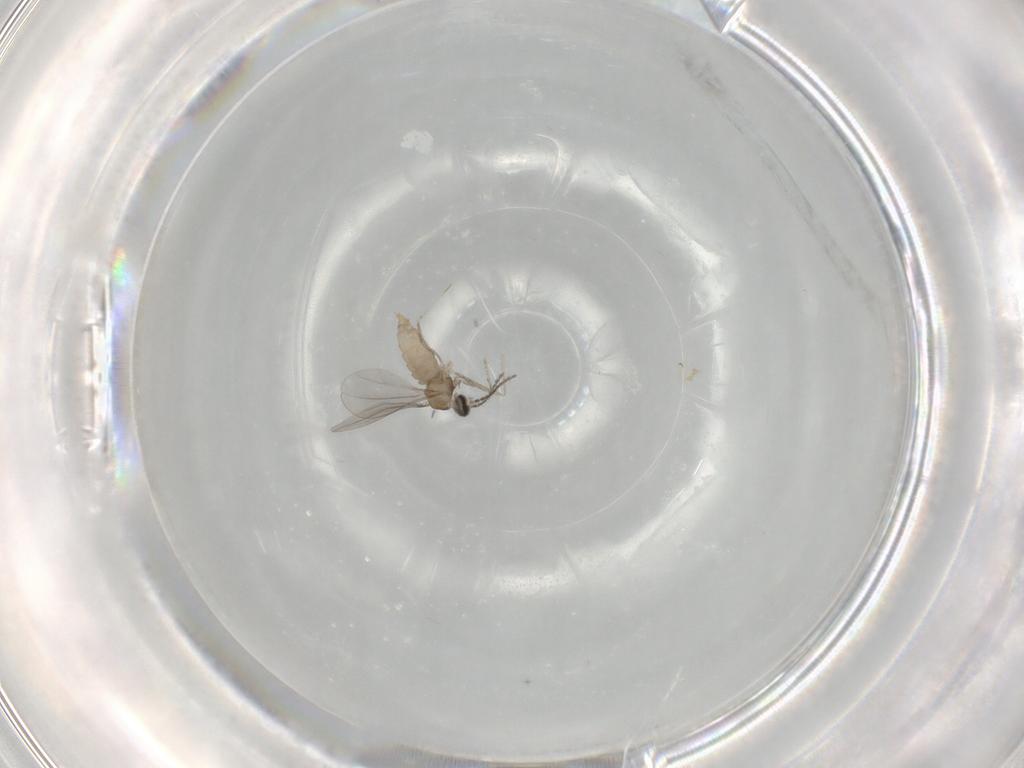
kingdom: Animalia
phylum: Arthropoda
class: Insecta
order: Diptera
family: Cecidomyiidae
